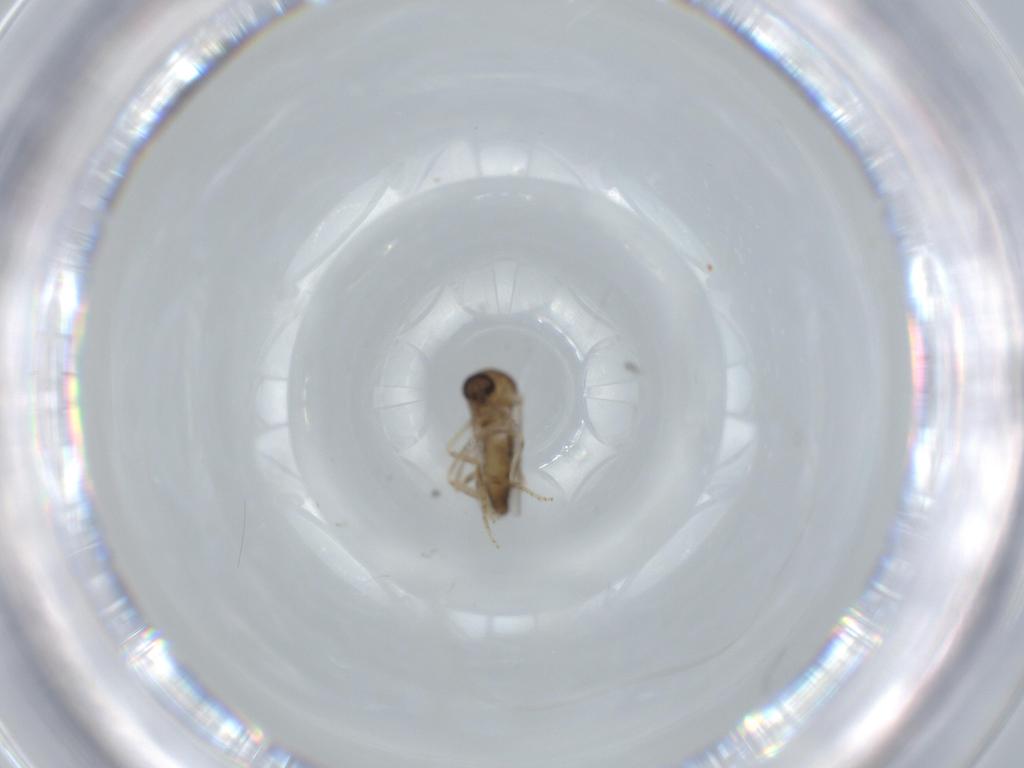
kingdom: Animalia
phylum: Arthropoda
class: Insecta
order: Diptera
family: Ceratopogonidae
